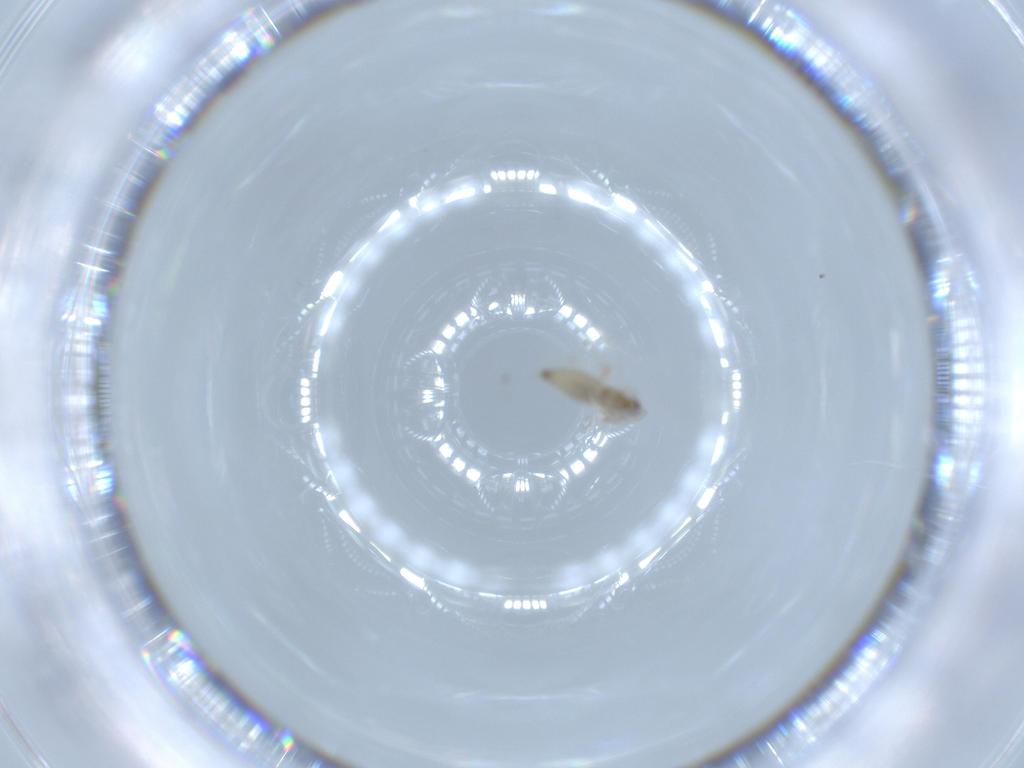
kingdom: Animalia
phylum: Arthropoda
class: Insecta
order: Diptera
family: Cecidomyiidae
